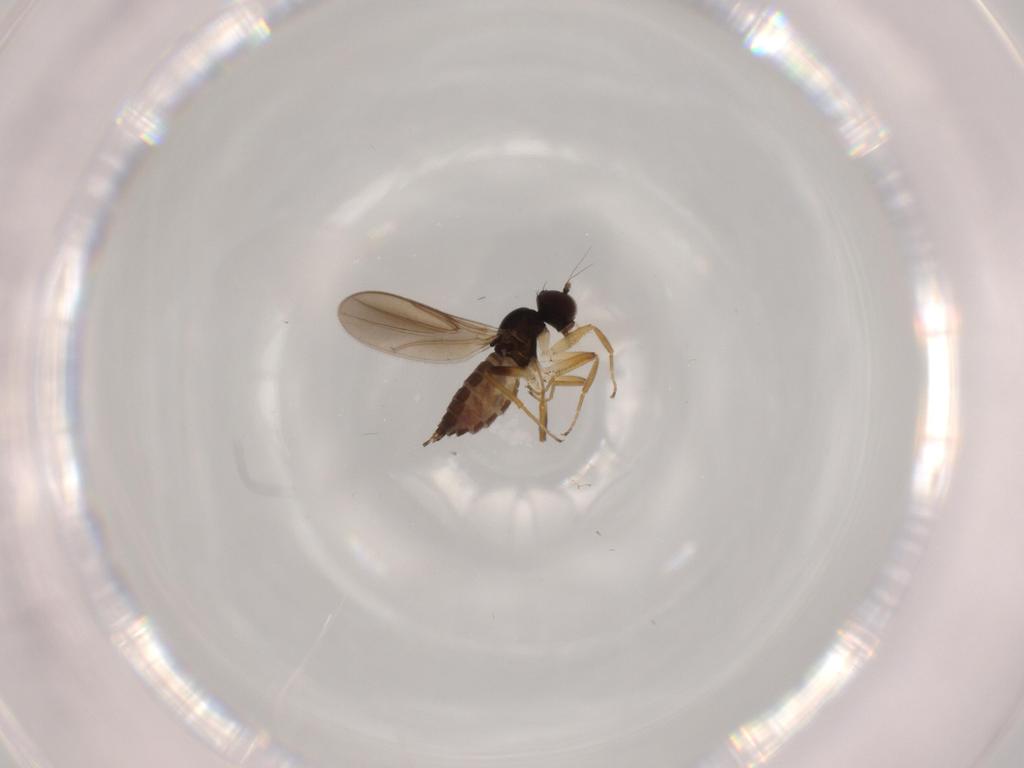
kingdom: Animalia
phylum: Arthropoda
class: Insecta
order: Diptera
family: Hybotidae
